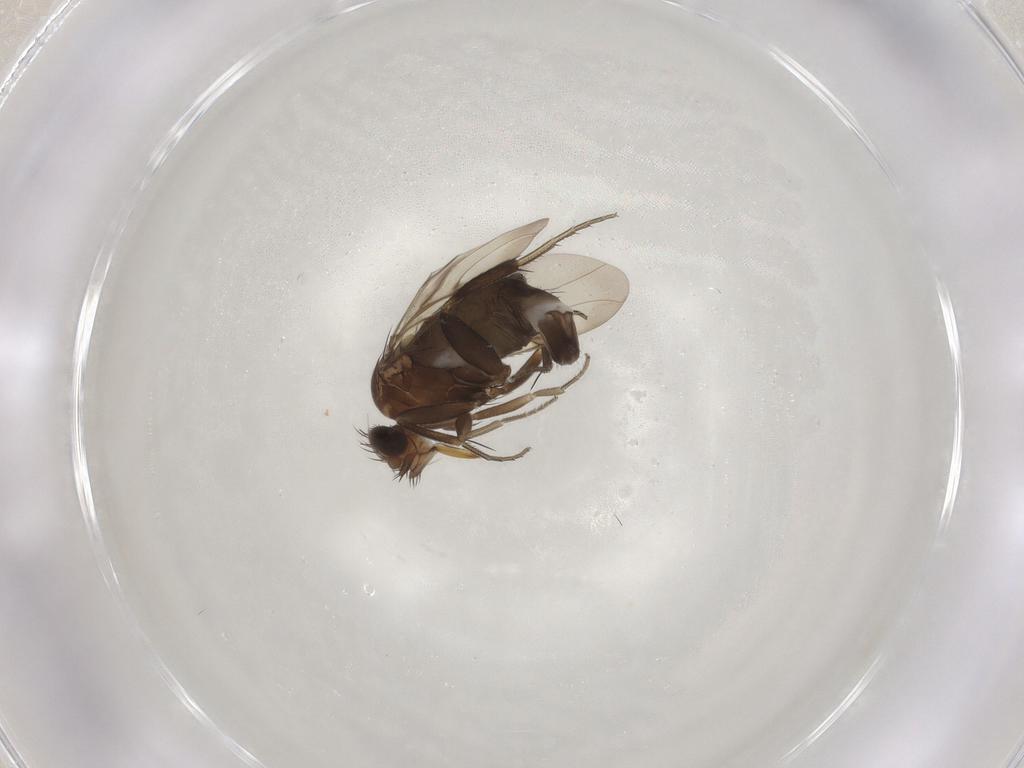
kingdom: Animalia
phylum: Arthropoda
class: Insecta
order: Diptera
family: Phoridae
